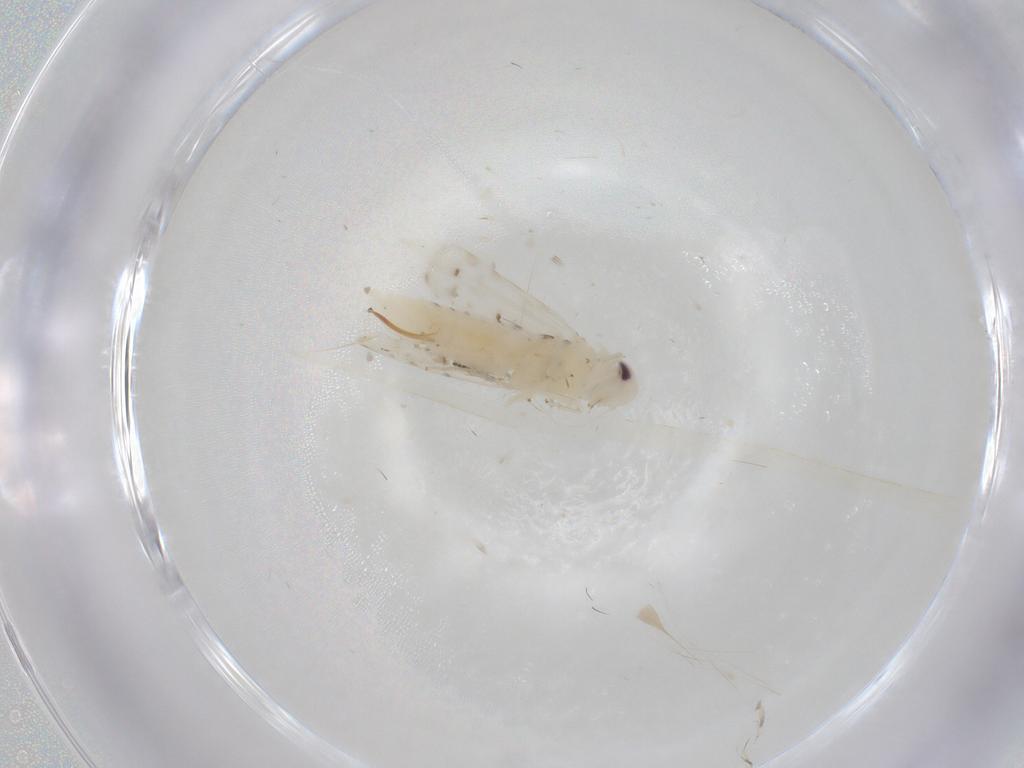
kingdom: Animalia
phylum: Arthropoda
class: Insecta
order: Hemiptera
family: Cicadellidae
